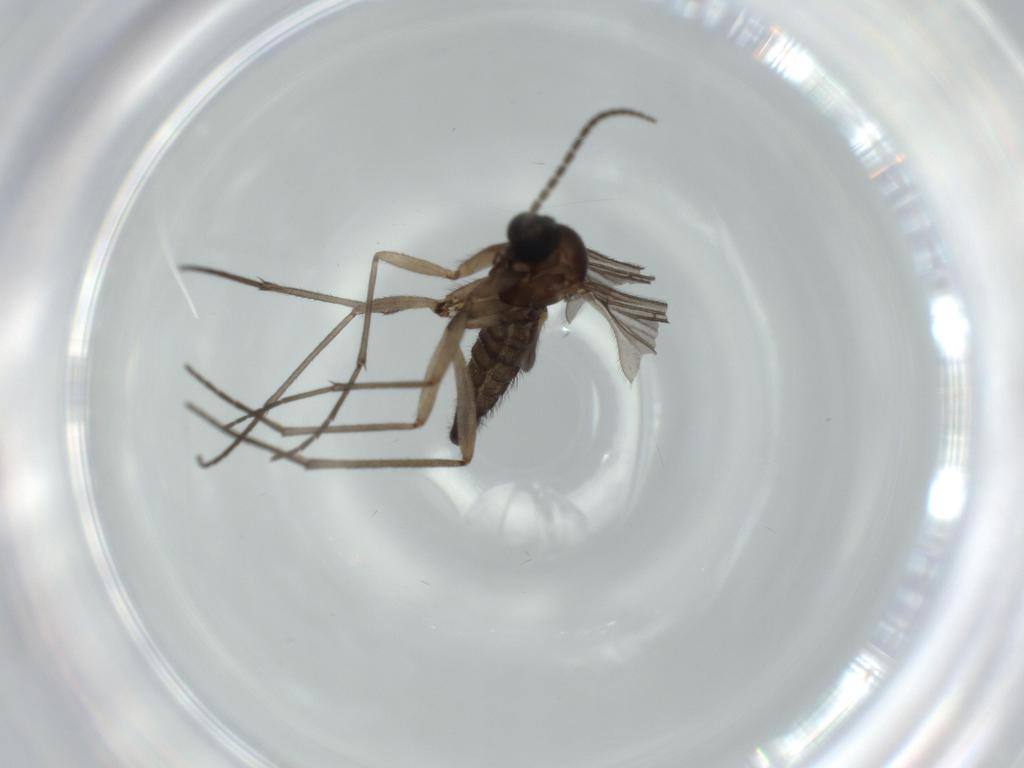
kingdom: Animalia
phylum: Arthropoda
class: Insecta
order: Diptera
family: Sciaridae
